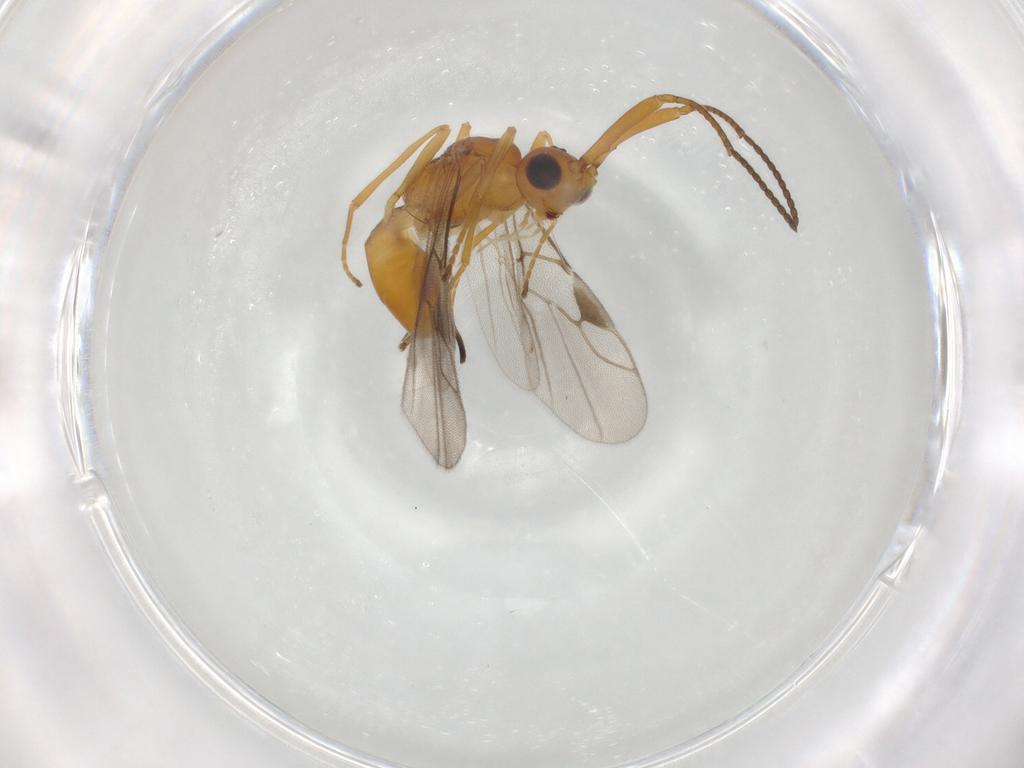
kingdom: Animalia
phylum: Arthropoda
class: Insecta
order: Hymenoptera
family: Braconidae
